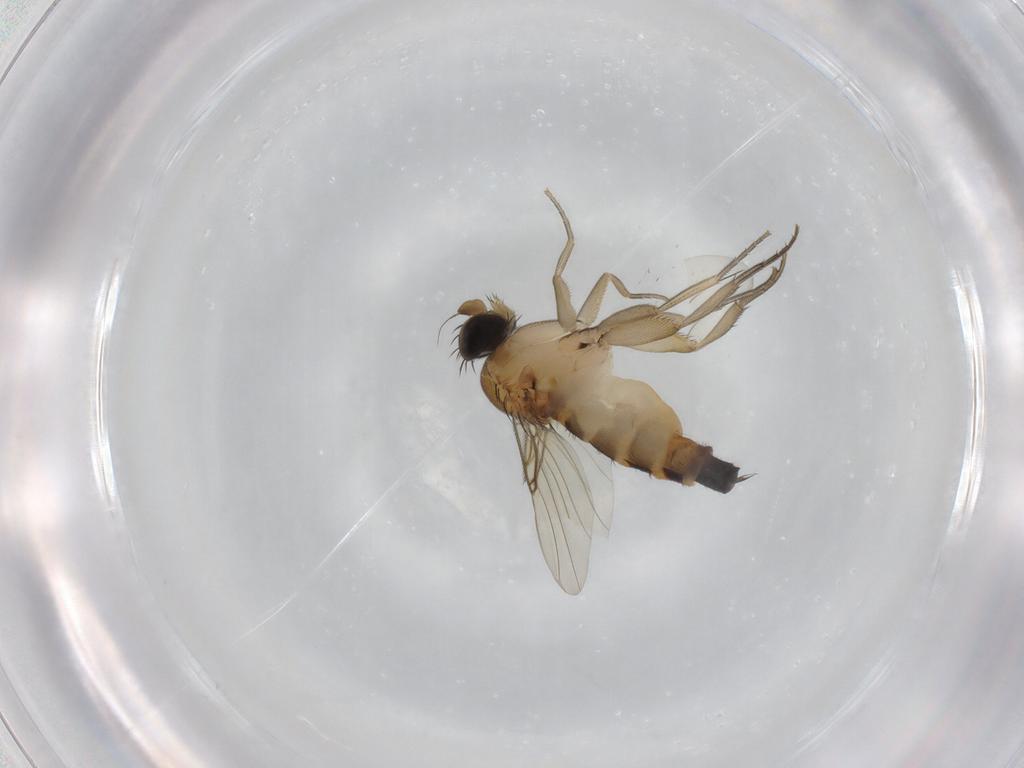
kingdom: Animalia
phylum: Arthropoda
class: Insecta
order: Diptera
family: Phoridae
